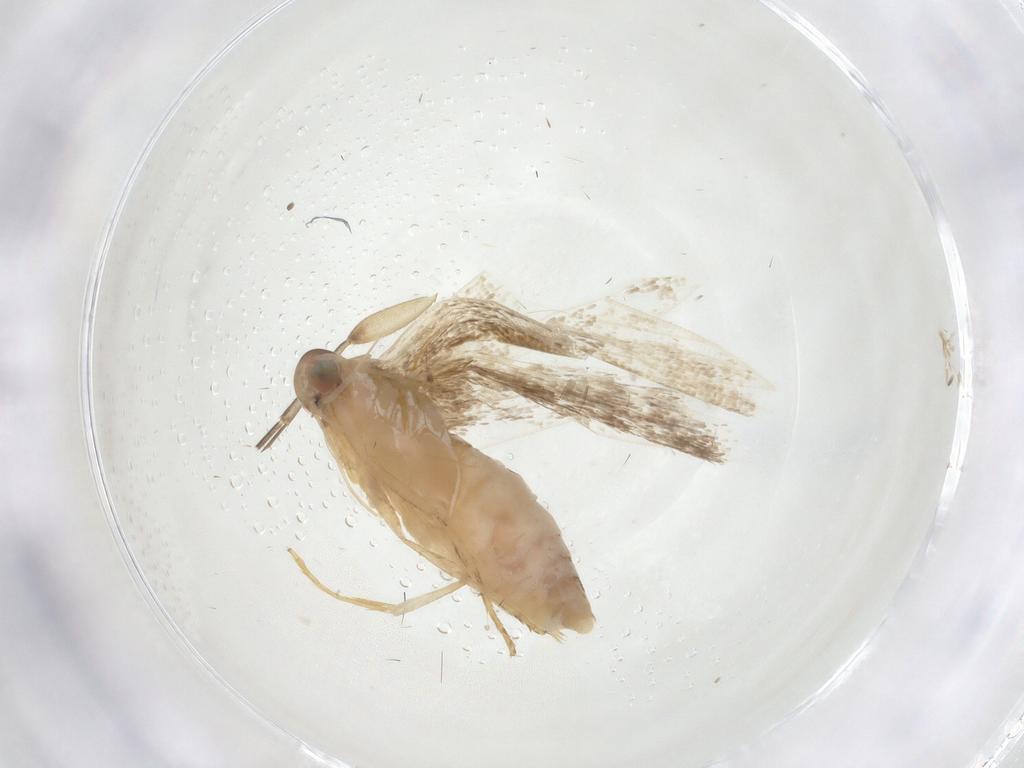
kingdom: Animalia
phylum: Arthropoda
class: Insecta
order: Lepidoptera
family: Gelechiidae
